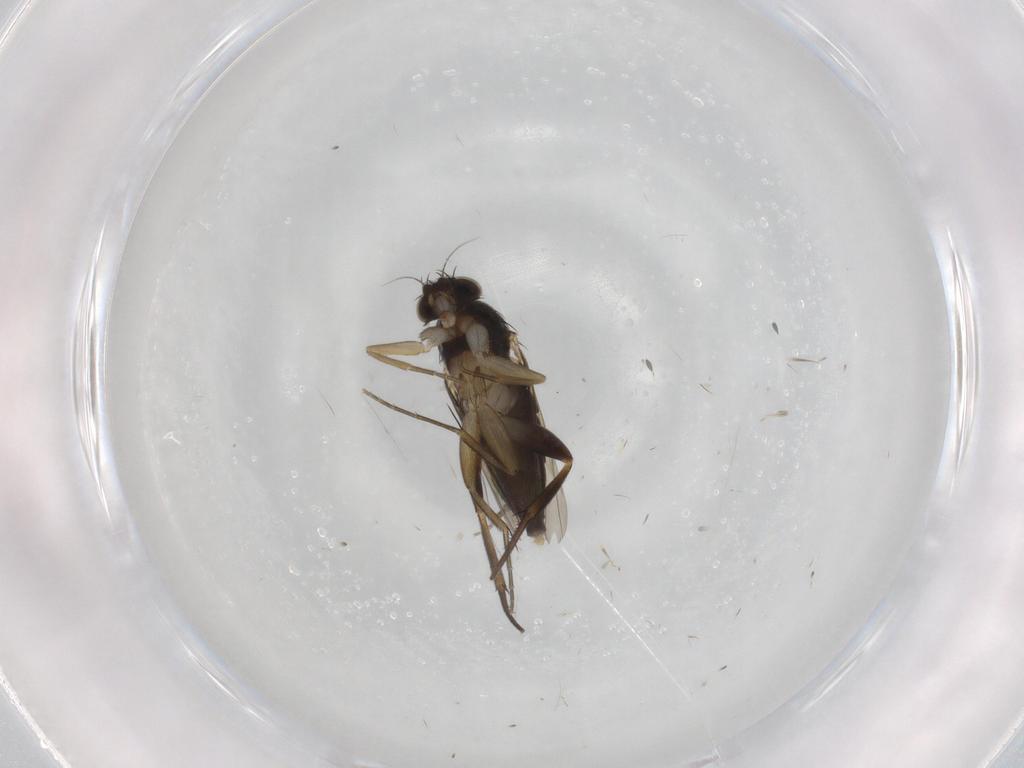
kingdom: Animalia
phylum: Arthropoda
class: Insecta
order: Diptera
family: Phoridae
